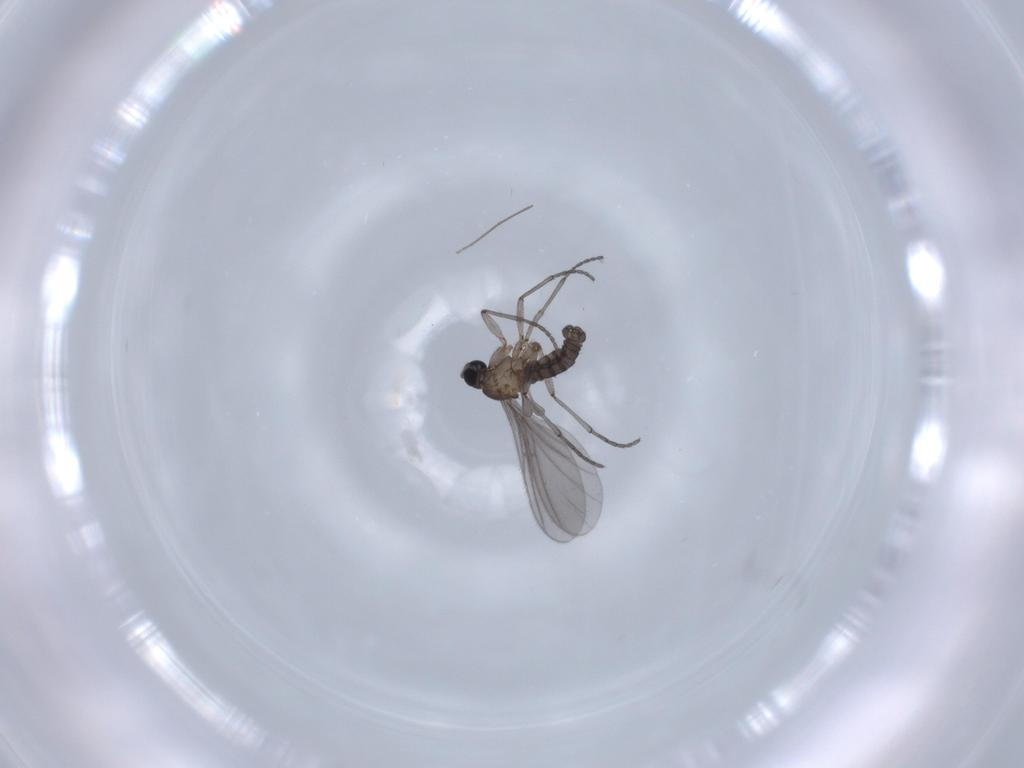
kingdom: Animalia
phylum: Arthropoda
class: Insecta
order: Diptera
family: Sciaridae
